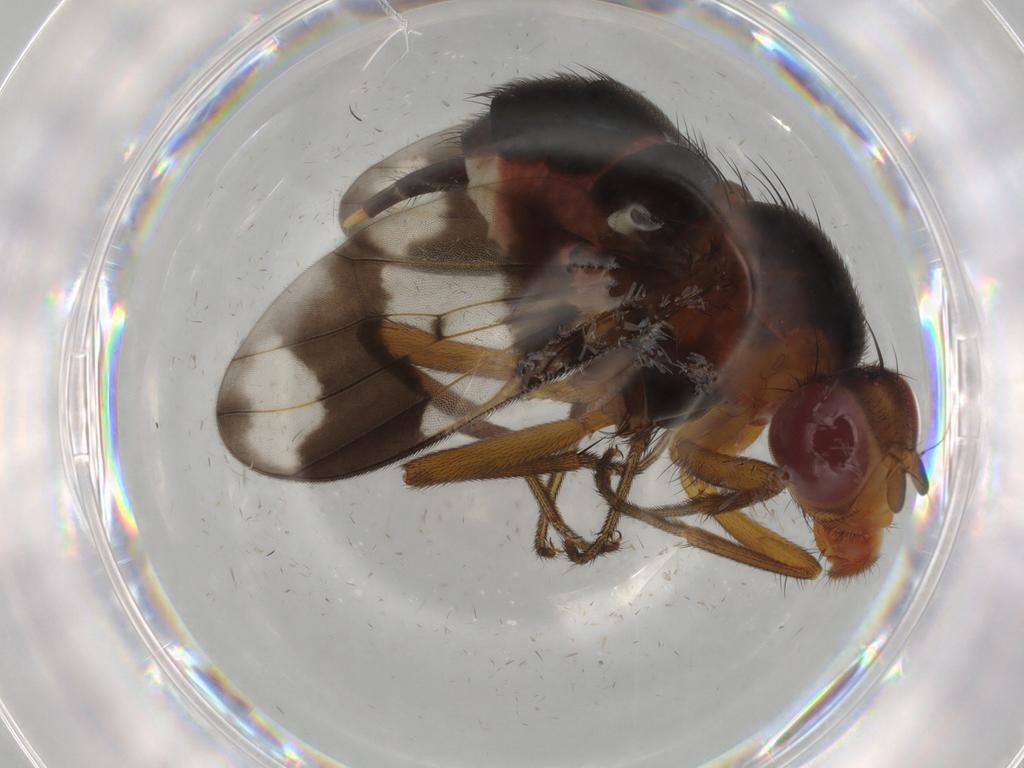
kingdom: Animalia
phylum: Arthropoda
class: Insecta
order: Diptera
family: Richardiidae
